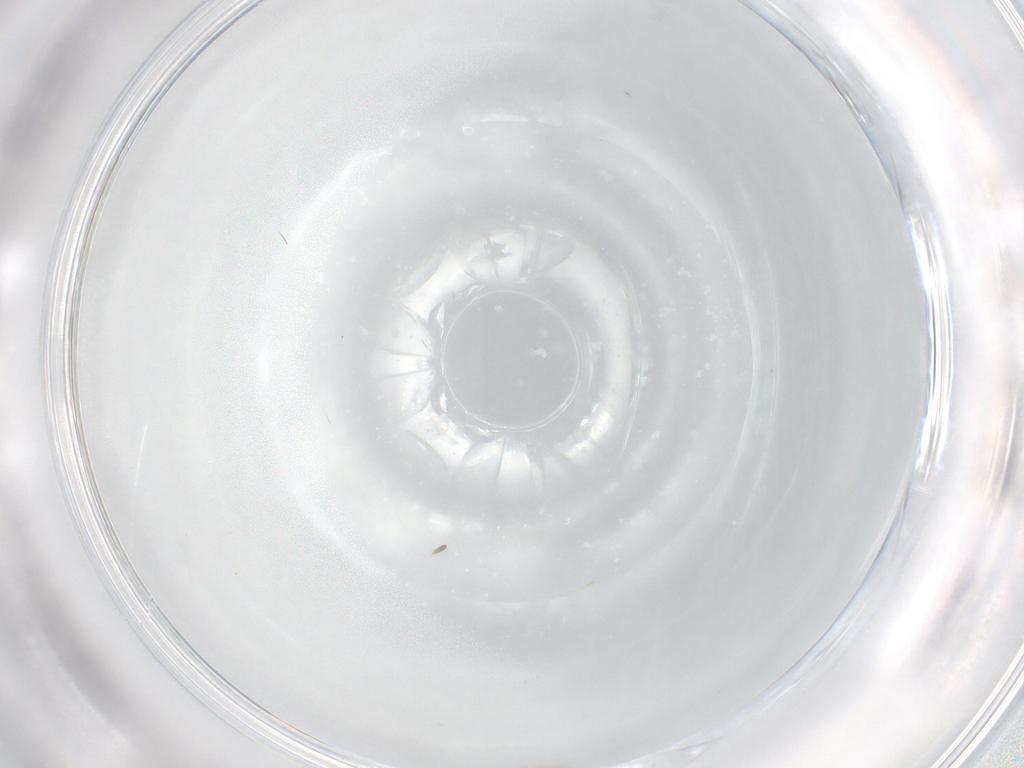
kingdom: Animalia
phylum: Arthropoda
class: Insecta
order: Diptera
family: Cecidomyiidae
